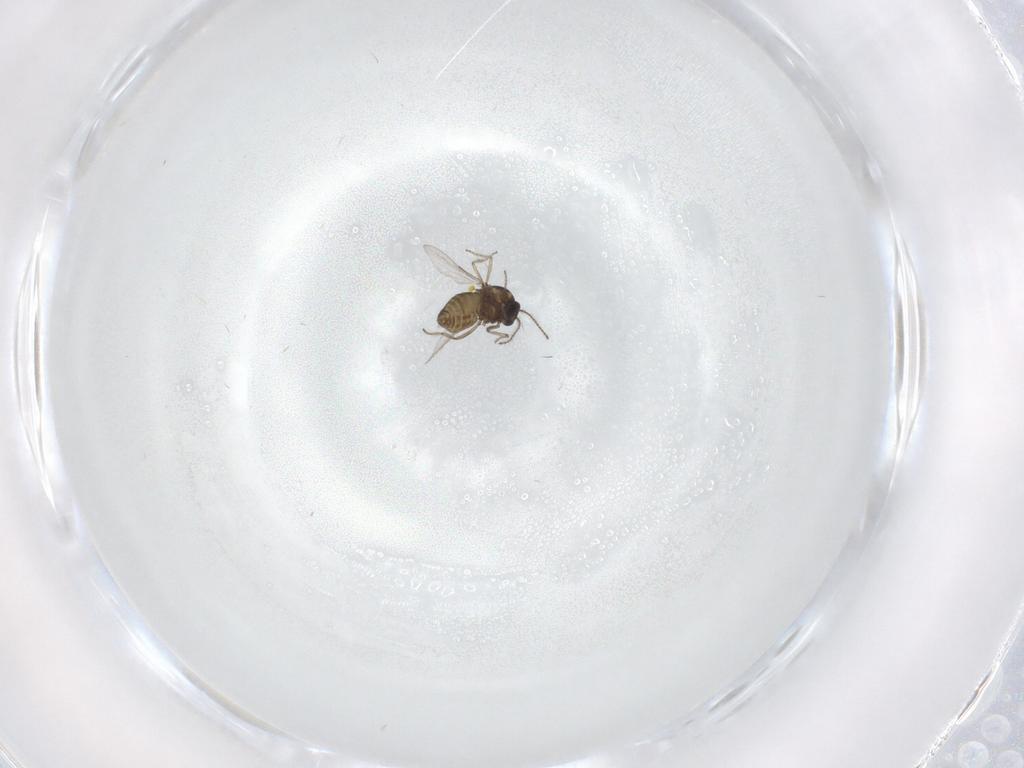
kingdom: Animalia
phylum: Arthropoda
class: Insecta
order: Diptera
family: Ceratopogonidae
